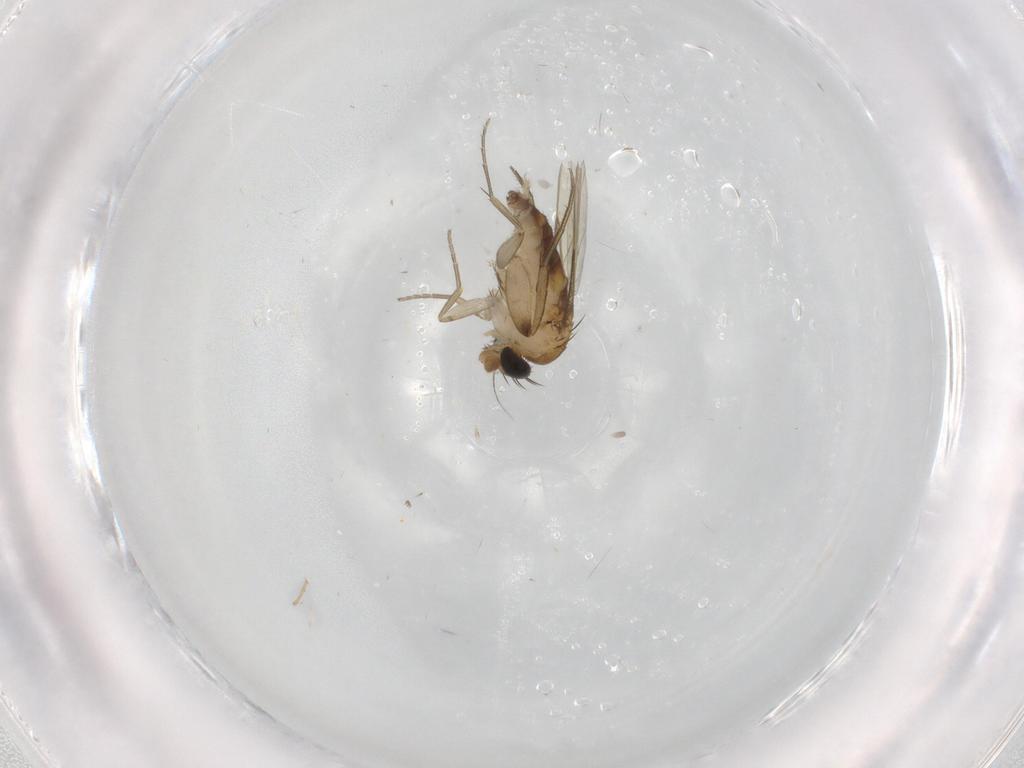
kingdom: Animalia
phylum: Arthropoda
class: Insecta
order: Diptera
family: Phoridae
